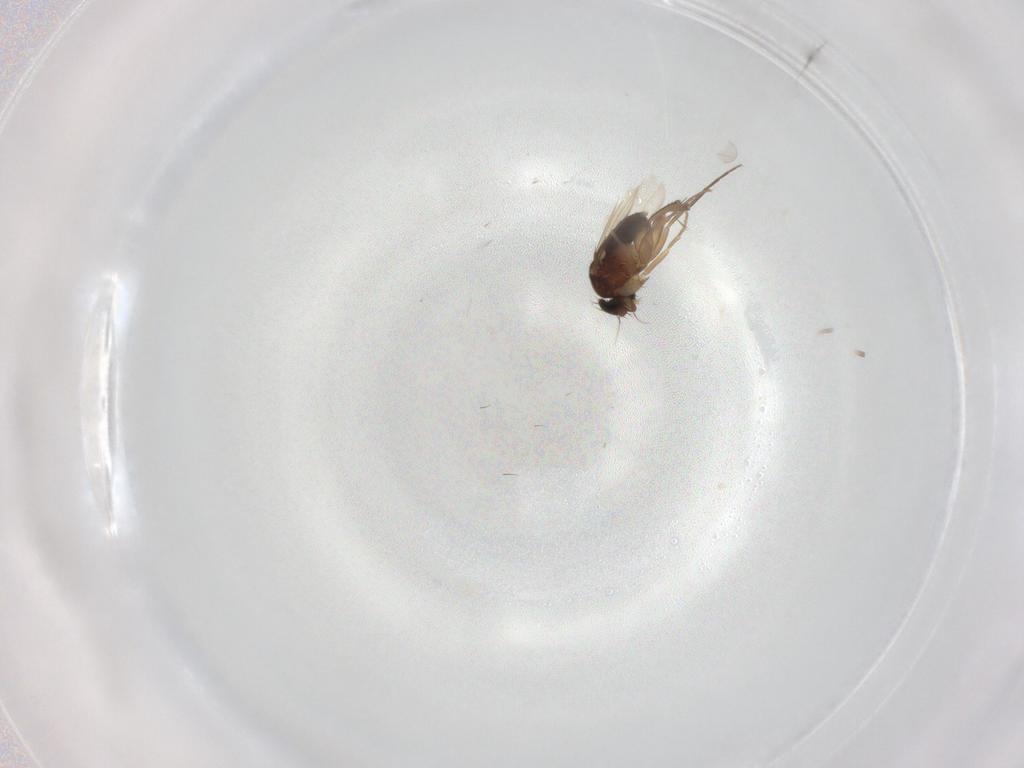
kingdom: Animalia
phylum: Arthropoda
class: Insecta
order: Diptera
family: Phoridae
